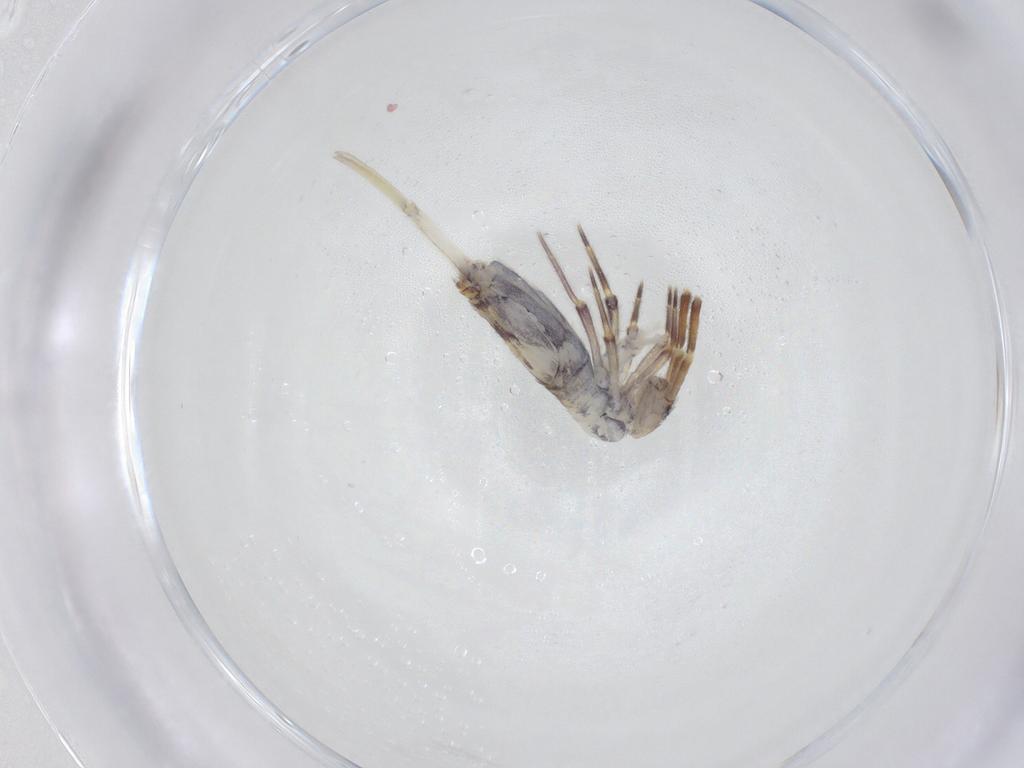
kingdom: Animalia
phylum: Arthropoda
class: Collembola
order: Entomobryomorpha
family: Entomobryidae
